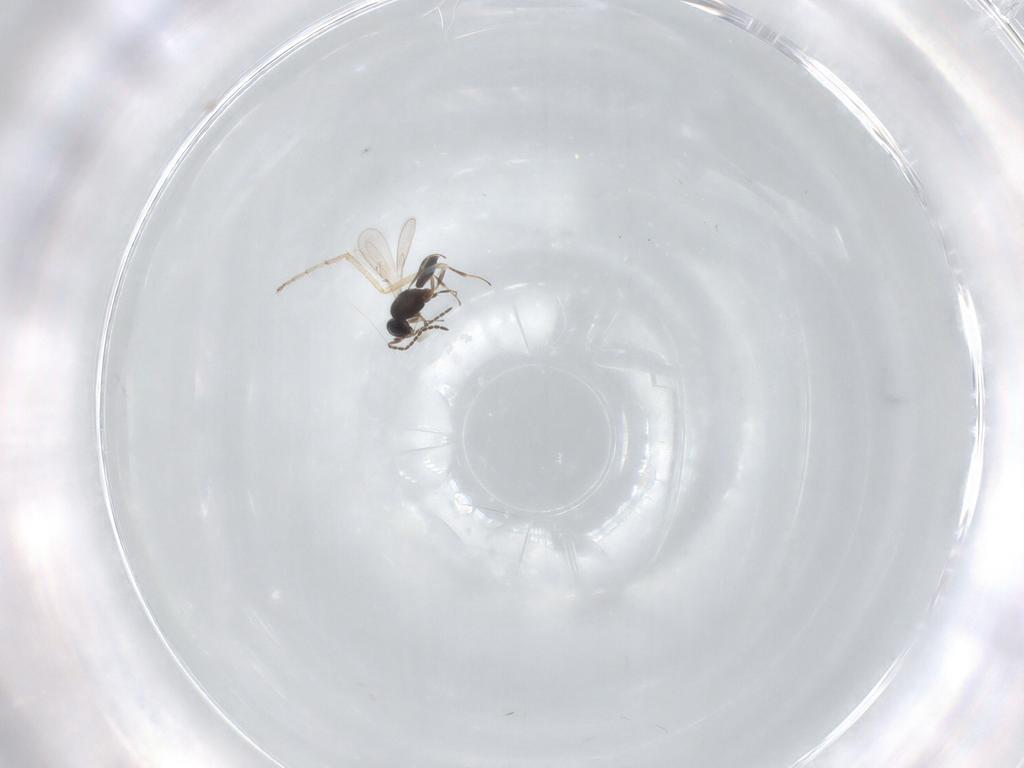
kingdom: Animalia
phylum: Arthropoda
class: Insecta
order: Hymenoptera
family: Scelionidae
